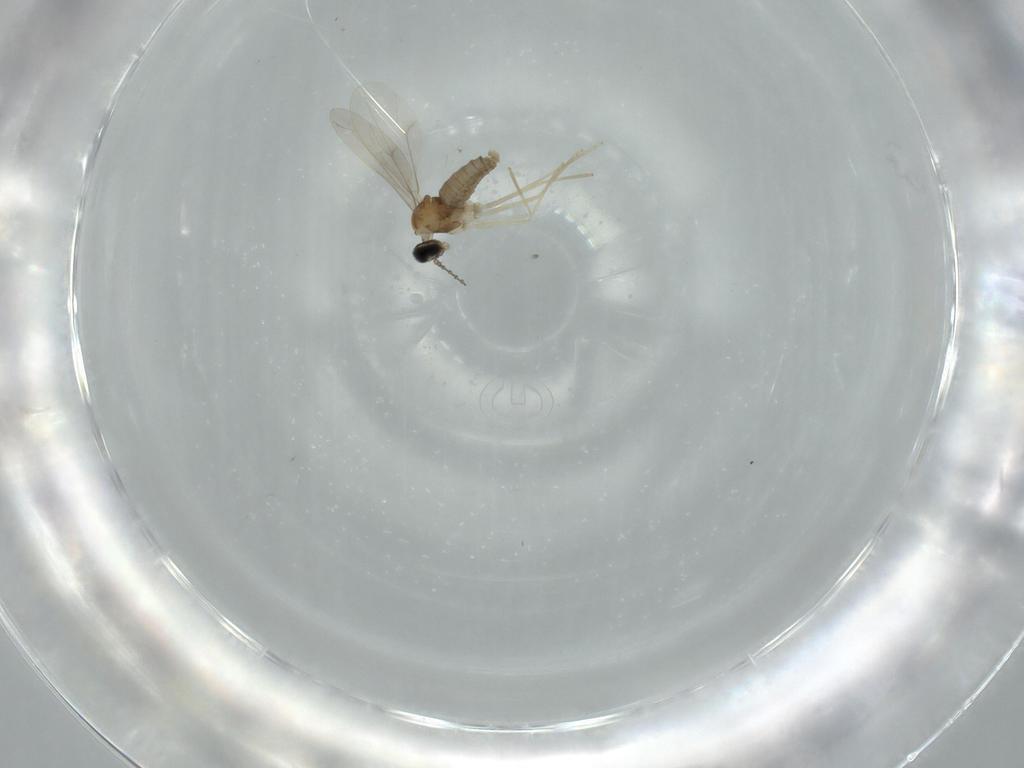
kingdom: Animalia
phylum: Arthropoda
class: Insecta
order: Diptera
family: Cecidomyiidae
